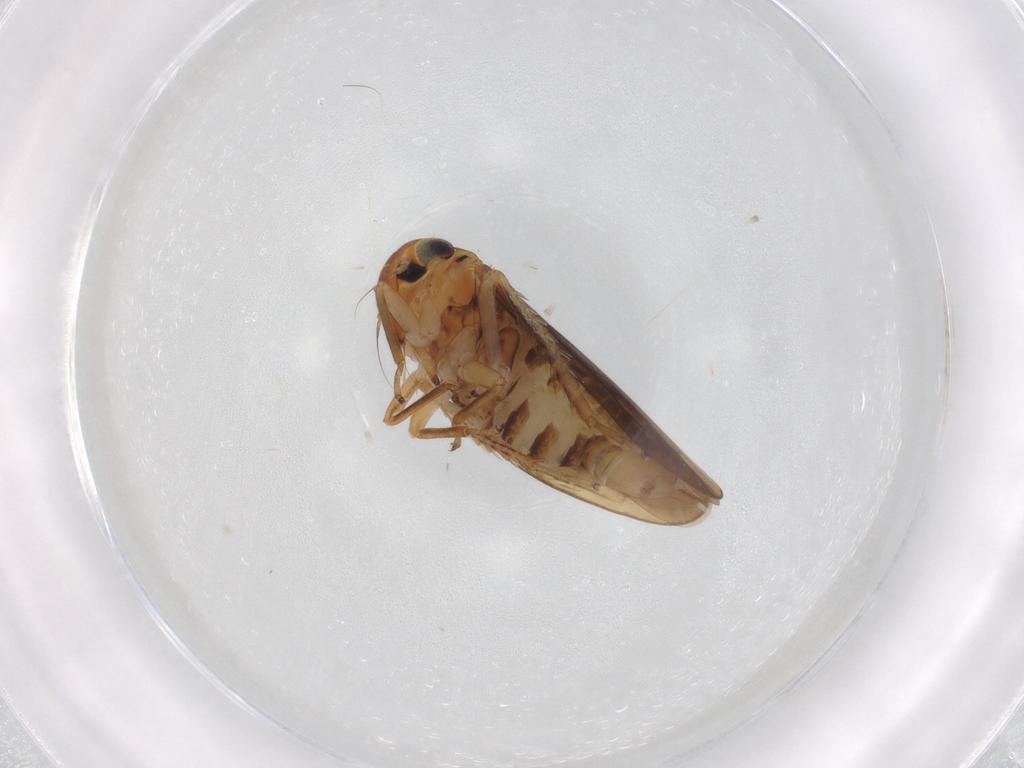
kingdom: Animalia
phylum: Arthropoda
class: Insecta
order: Hemiptera
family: Cicadellidae
